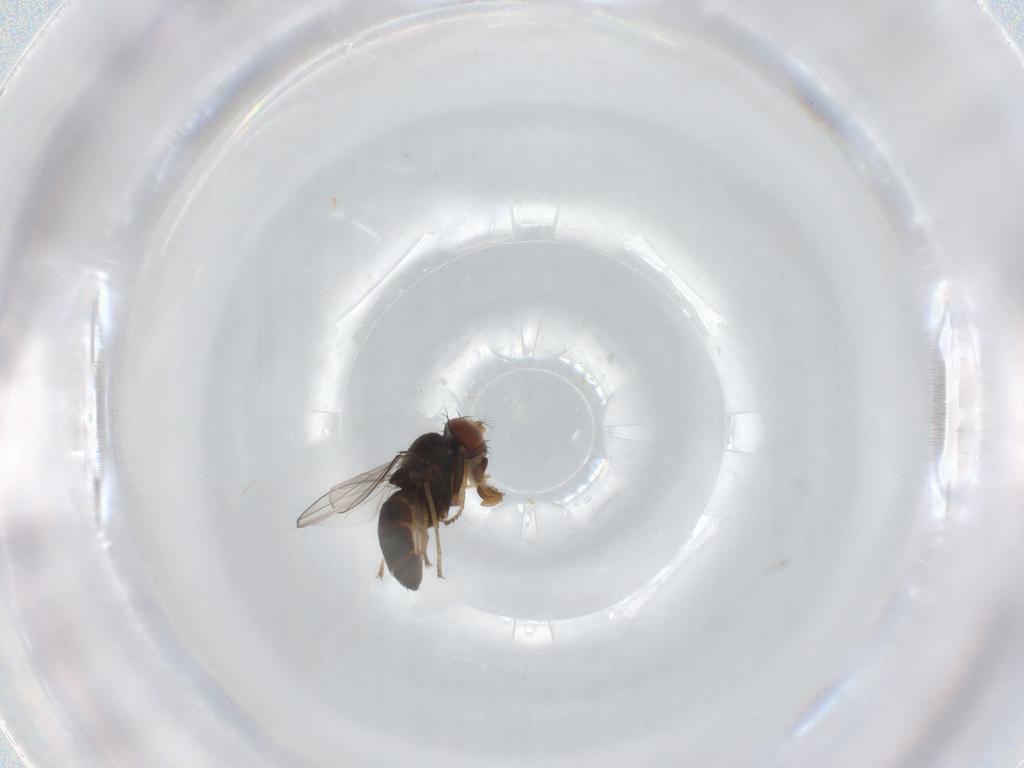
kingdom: Animalia
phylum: Arthropoda
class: Insecta
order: Diptera
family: Ephydridae
